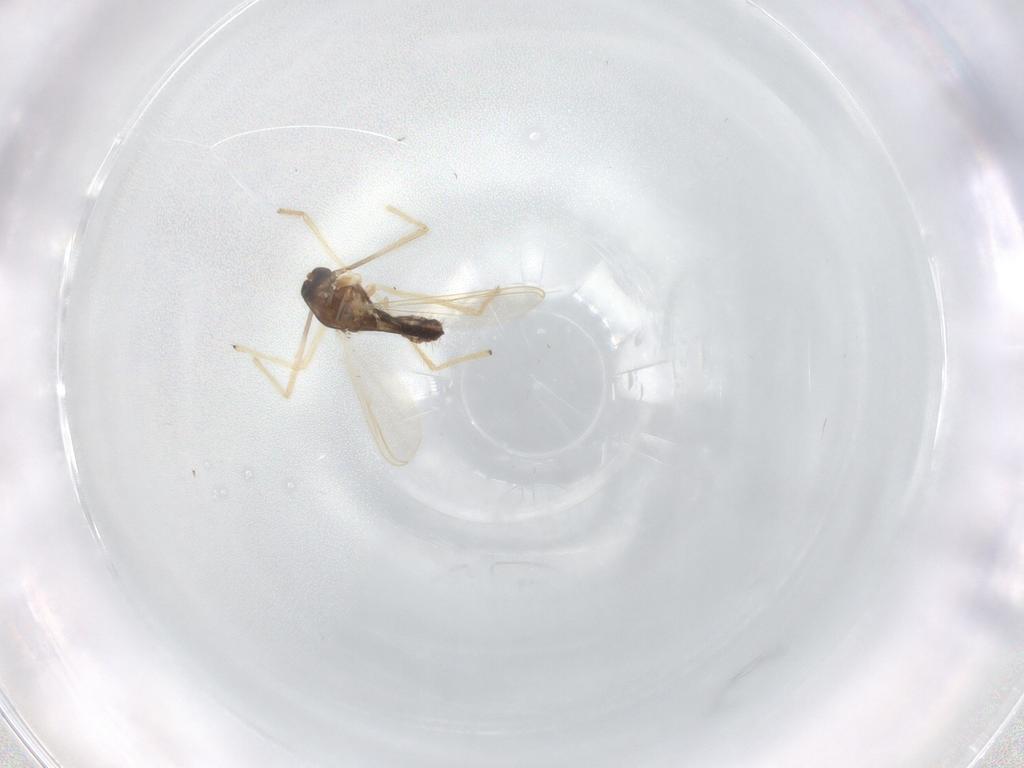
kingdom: Animalia
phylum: Arthropoda
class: Insecta
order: Diptera
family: Chironomidae
